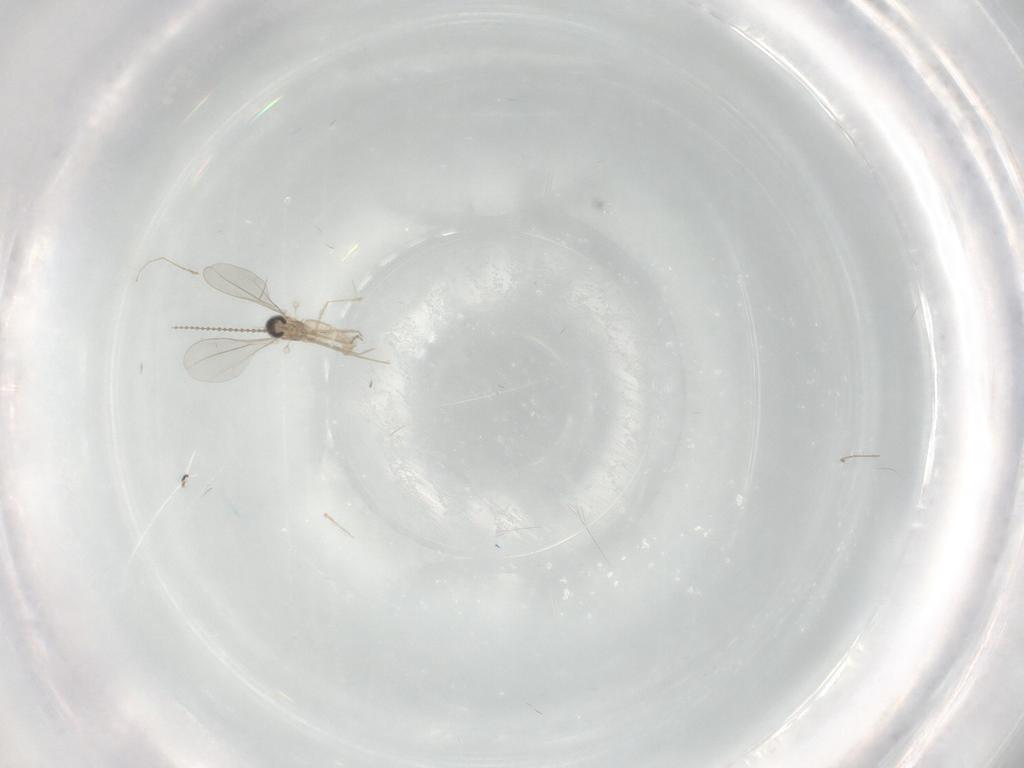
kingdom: Animalia
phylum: Arthropoda
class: Insecta
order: Diptera
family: Cecidomyiidae
